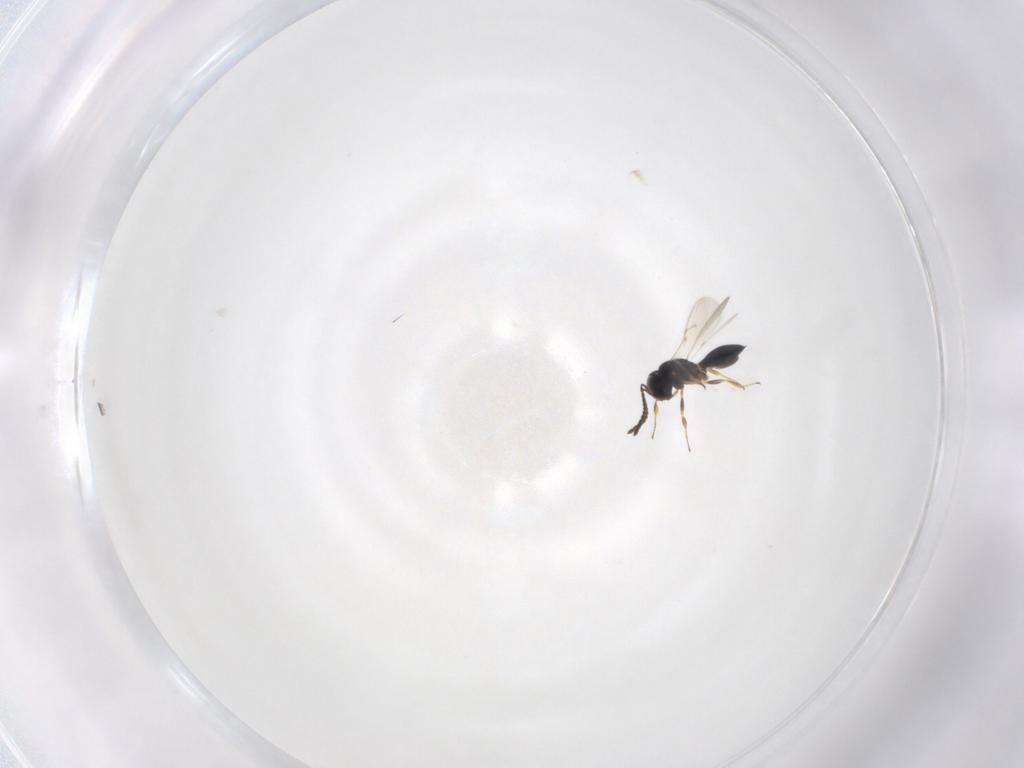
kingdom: Animalia
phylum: Arthropoda
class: Insecta
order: Hymenoptera
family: Scelionidae
